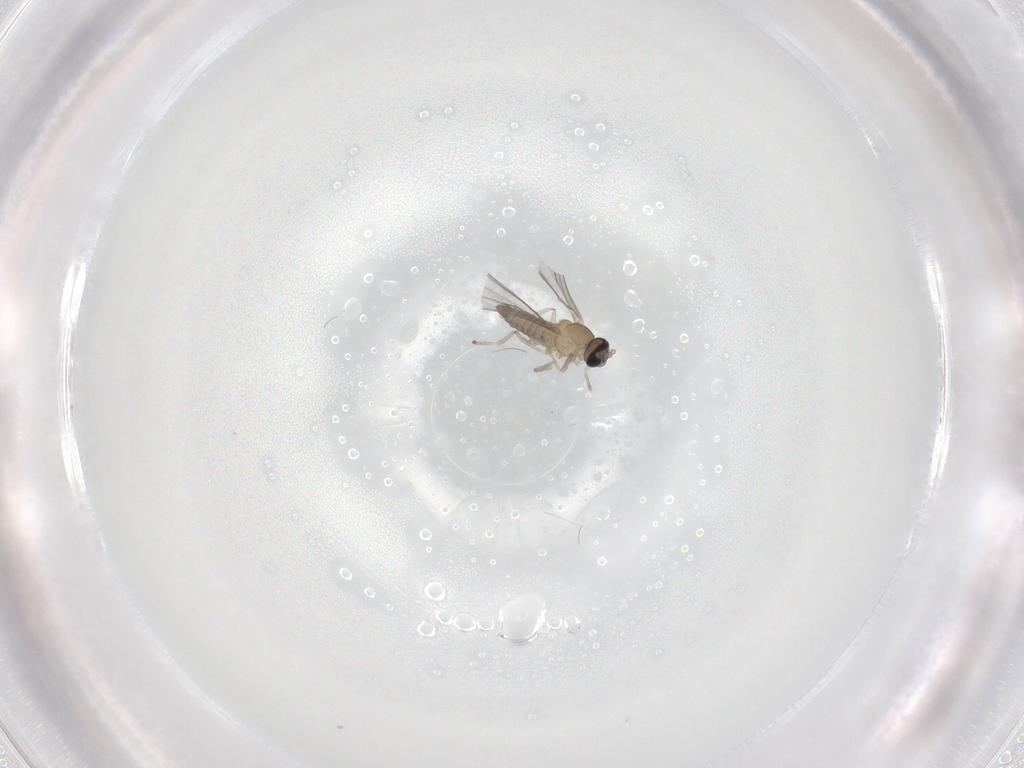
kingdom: Animalia
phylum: Arthropoda
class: Insecta
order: Diptera
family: Cecidomyiidae
